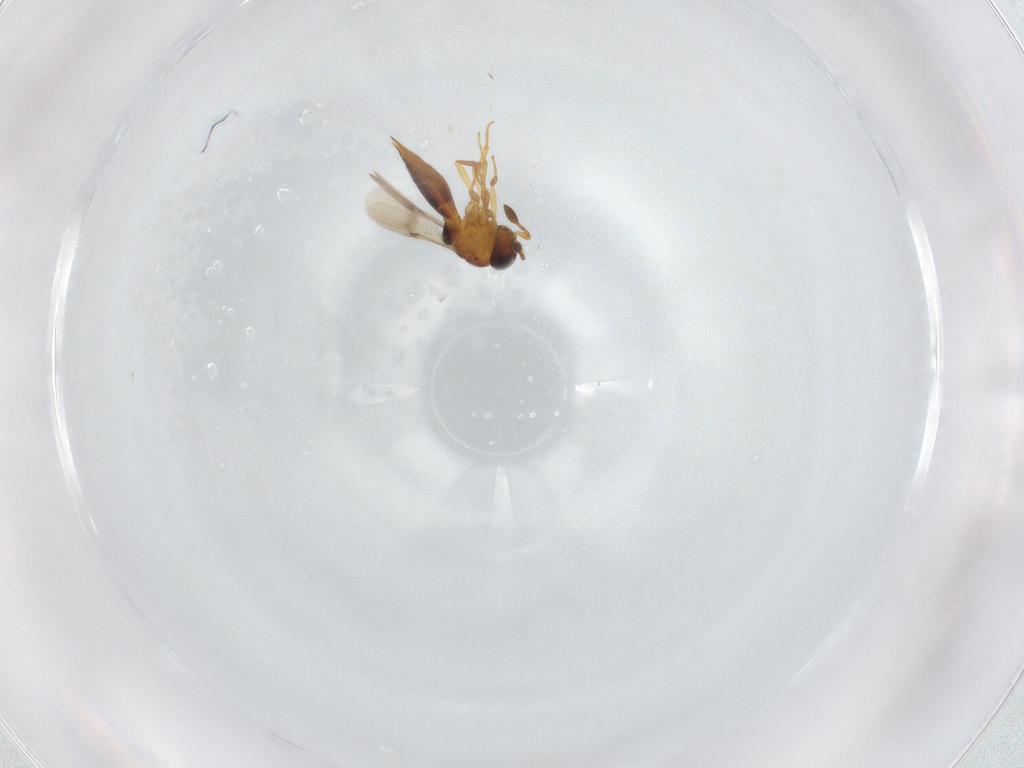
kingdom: Animalia
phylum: Arthropoda
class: Insecta
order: Hymenoptera
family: Scelionidae
